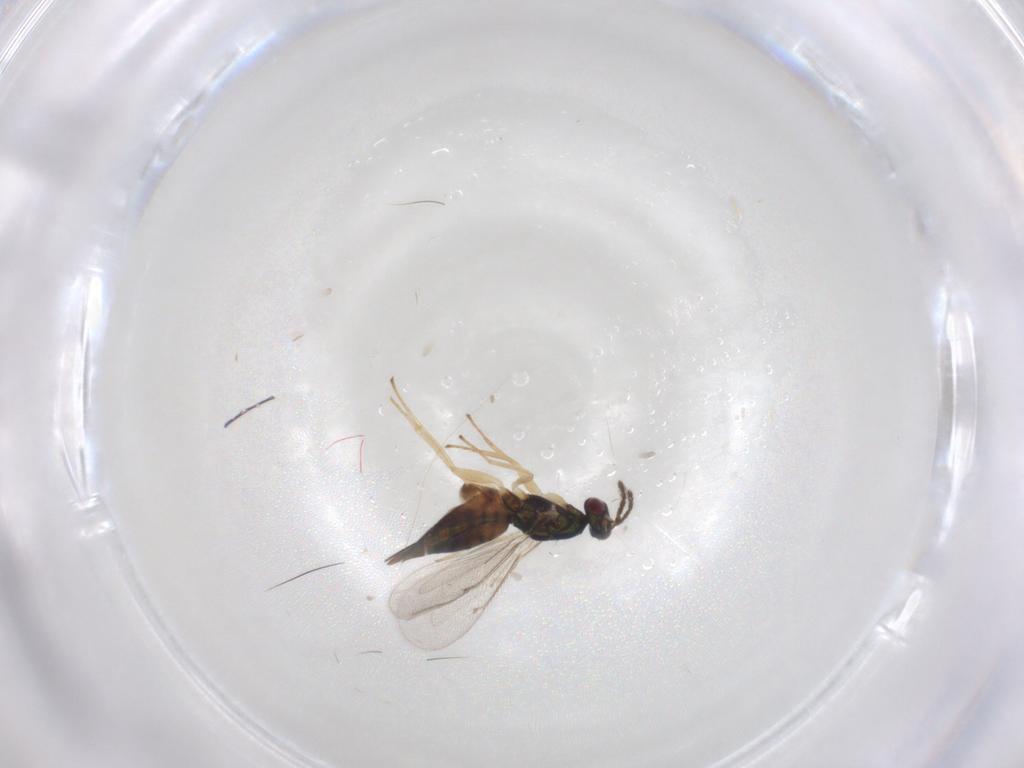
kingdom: Animalia
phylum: Arthropoda
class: Insecta
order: Hymenoptera
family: Eulophidae
